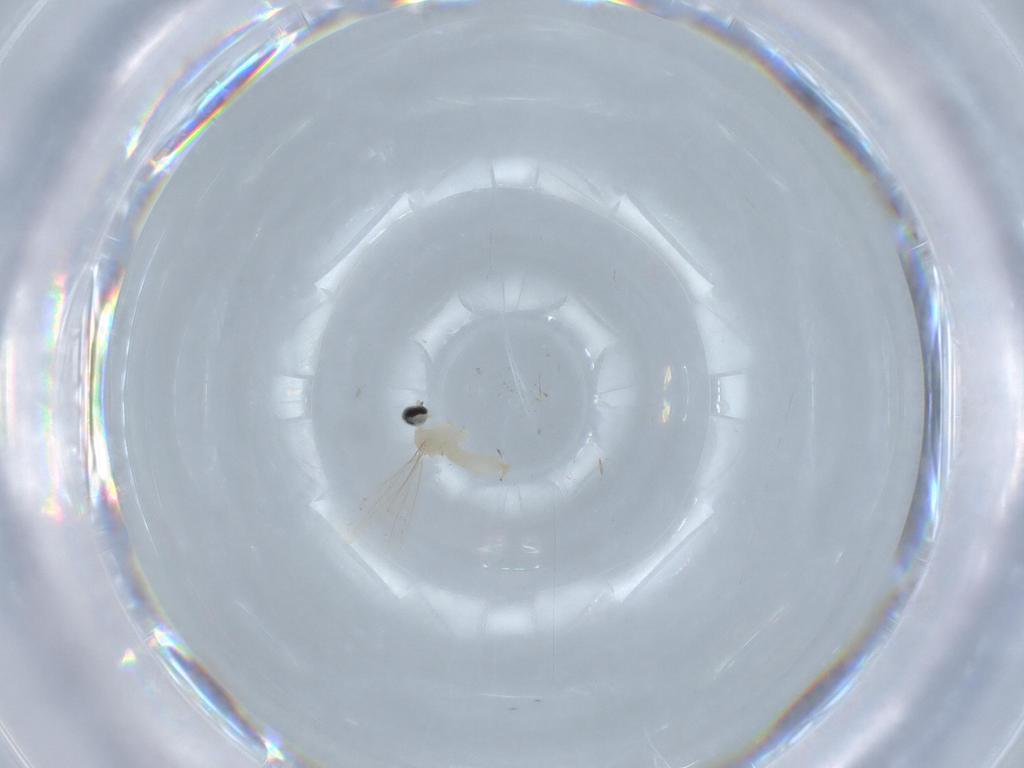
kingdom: Animalia
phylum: Arthropoda
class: Insecta
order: Diptera
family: Cecidomyiidae
